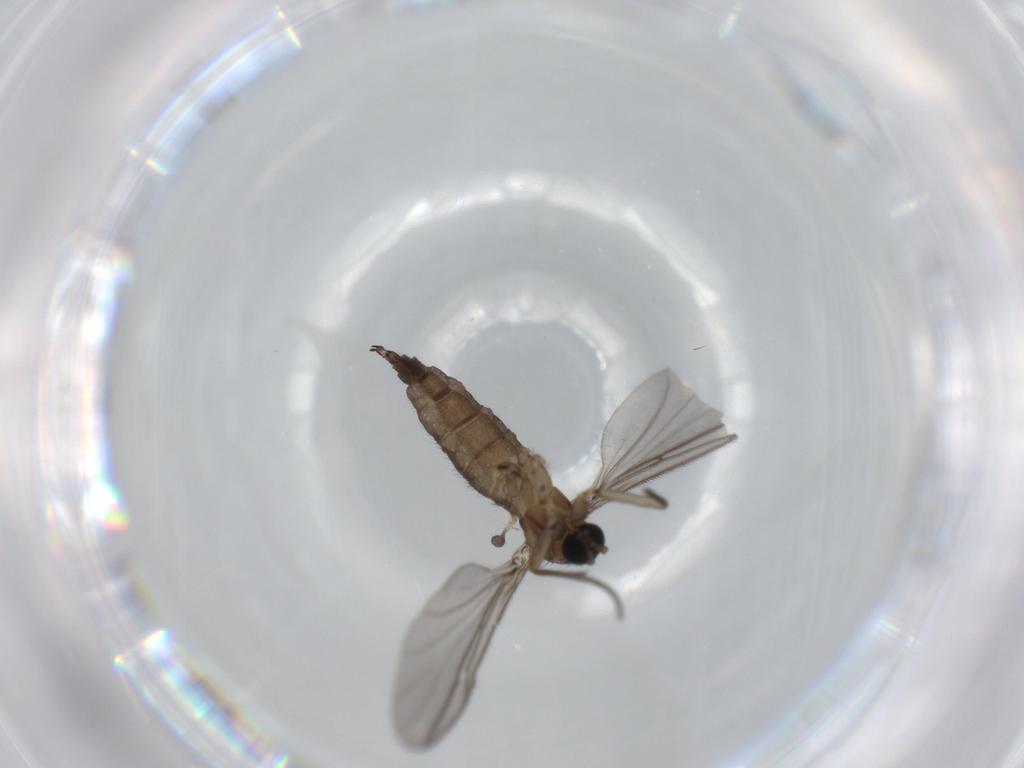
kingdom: Animalia
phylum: Arthropoda
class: Insecta
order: Diptera
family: Sciaridae
